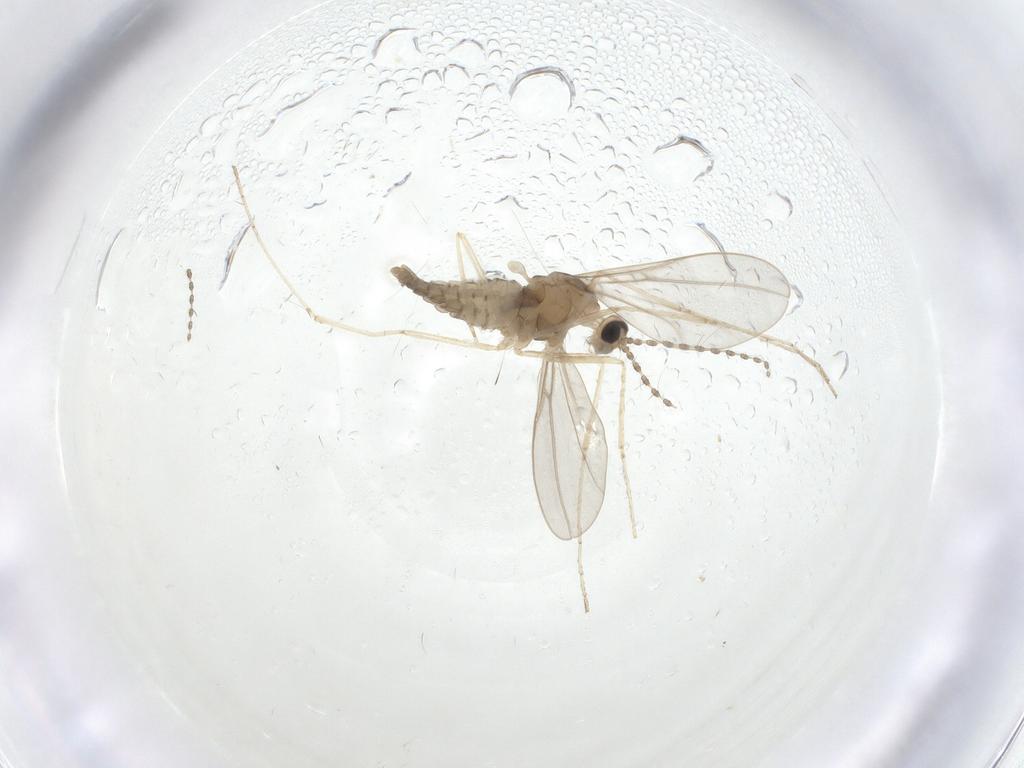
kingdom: Animalia
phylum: Arthropoda
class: Insecta
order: Diptera
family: Cecidomyiidae
